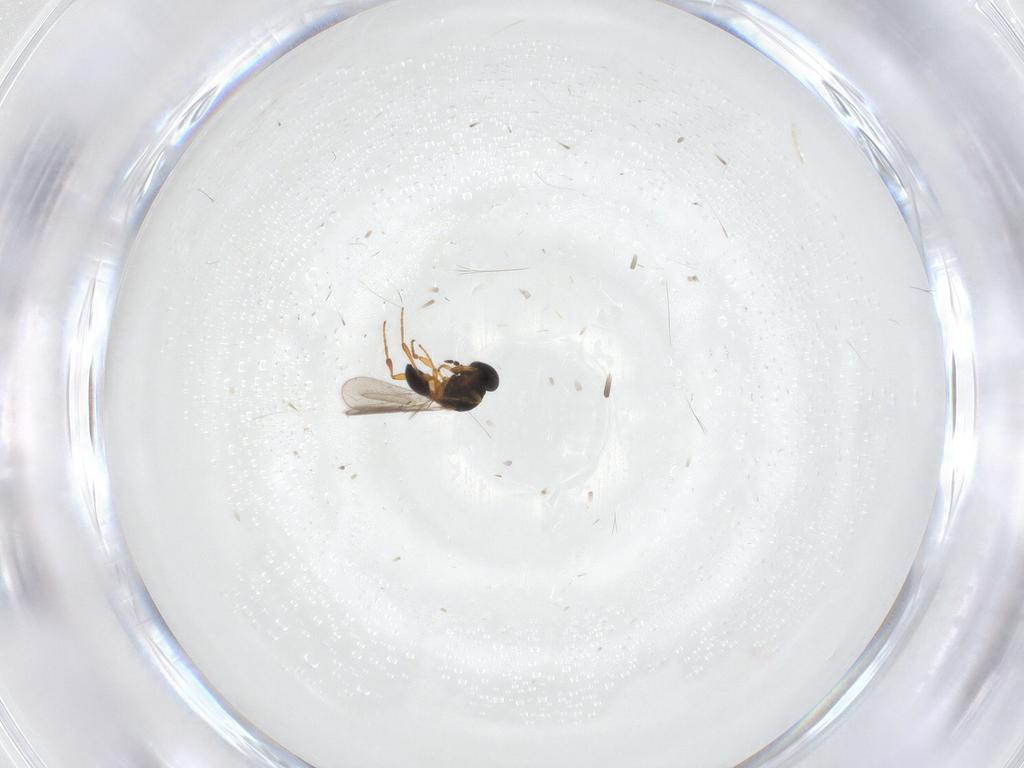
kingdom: Animalia
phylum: Arthropoda
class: Insecta
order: Hymenoptera
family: Platygastridae
